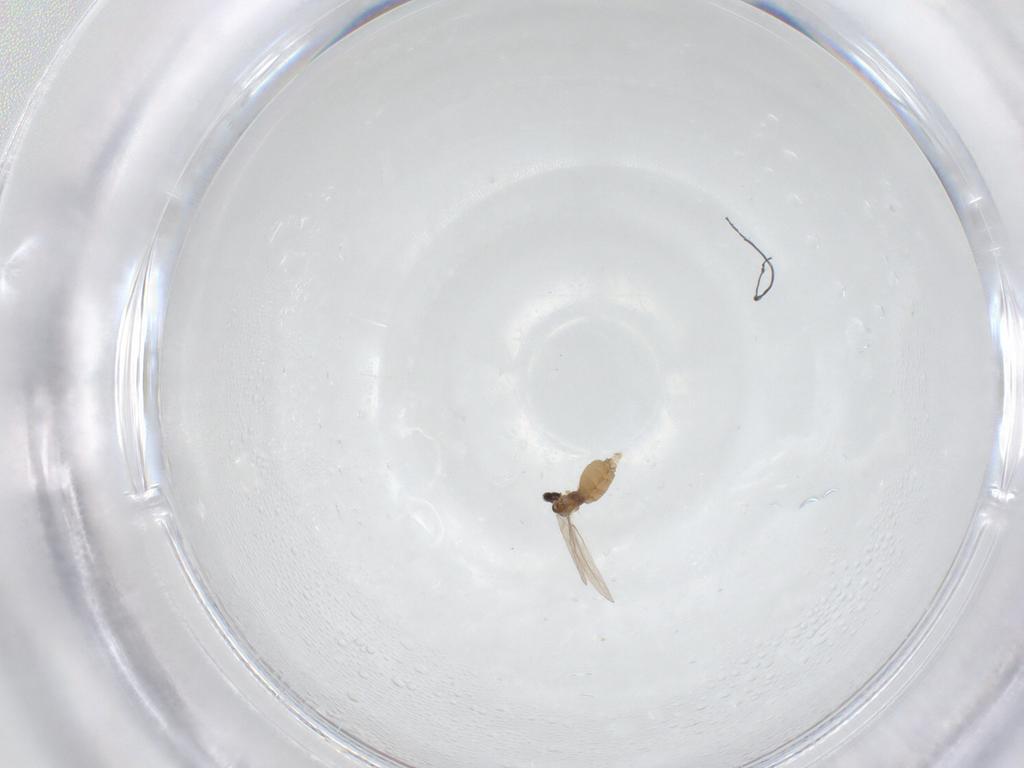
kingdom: Animalia
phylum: Arthropoda
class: Insecta
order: Diptera
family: Cecidomyiidae
